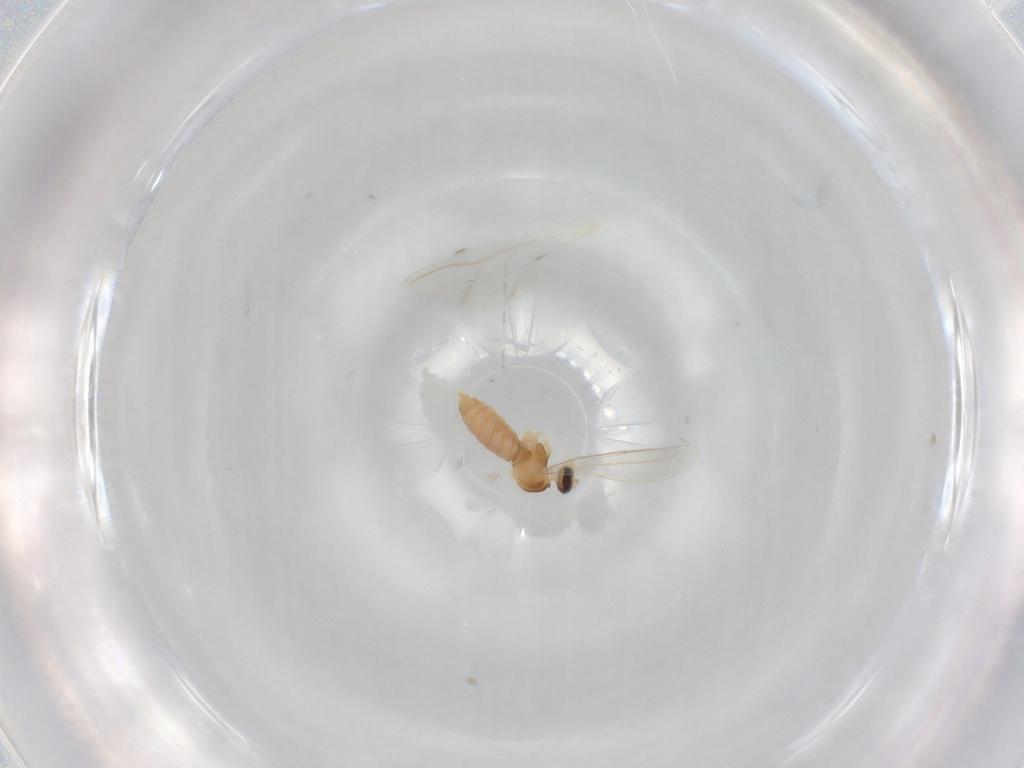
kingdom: Animalia
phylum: Arthropoda
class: Insecta
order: Diptera
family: Cecidomyiidae
